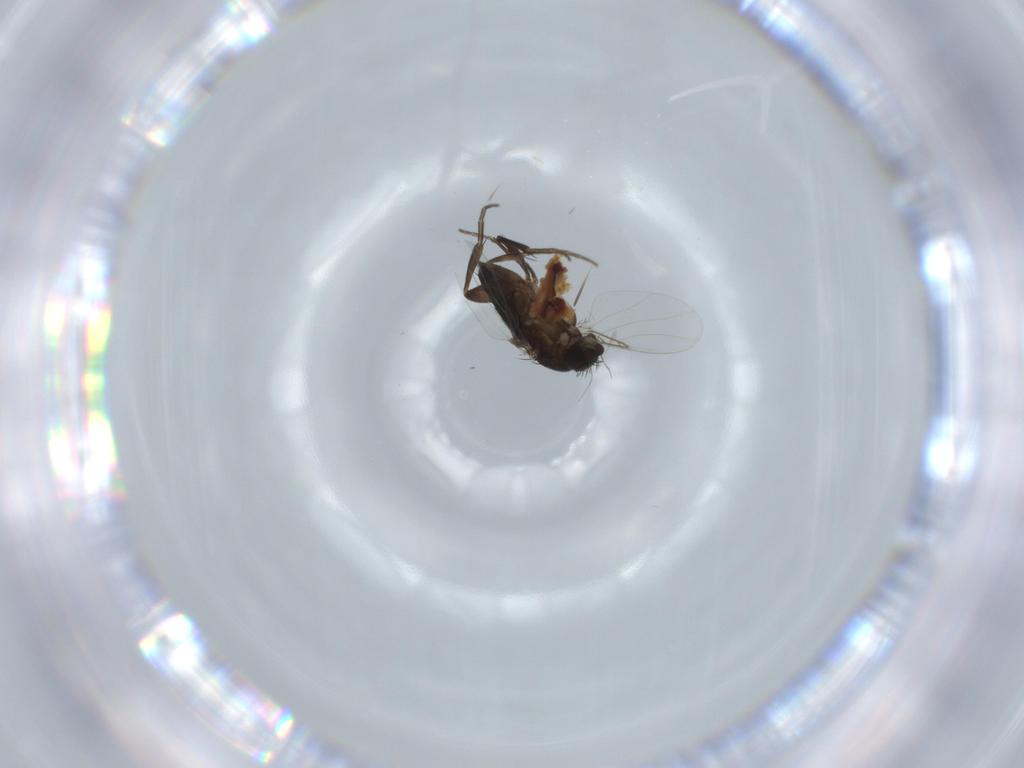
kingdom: Animalia
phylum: Arthropoda
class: Insecta
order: Diptera
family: Phoridae
